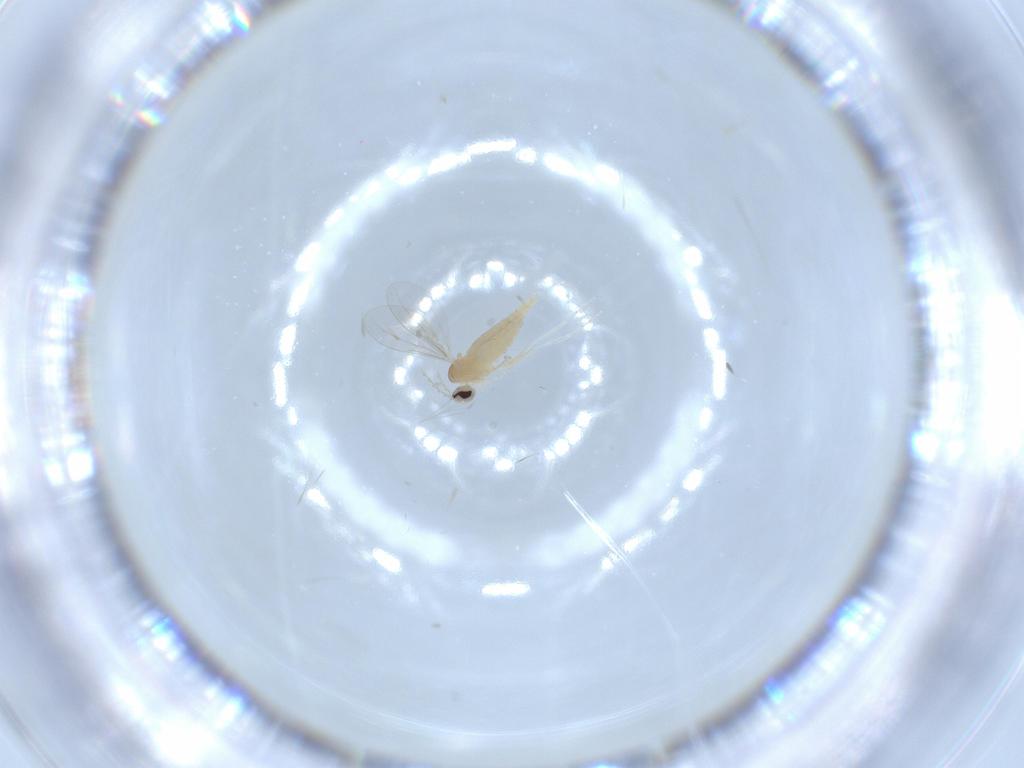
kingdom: Animalia
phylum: Arthropoda
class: Insecta
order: Diptera
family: Cecidomyiidae
